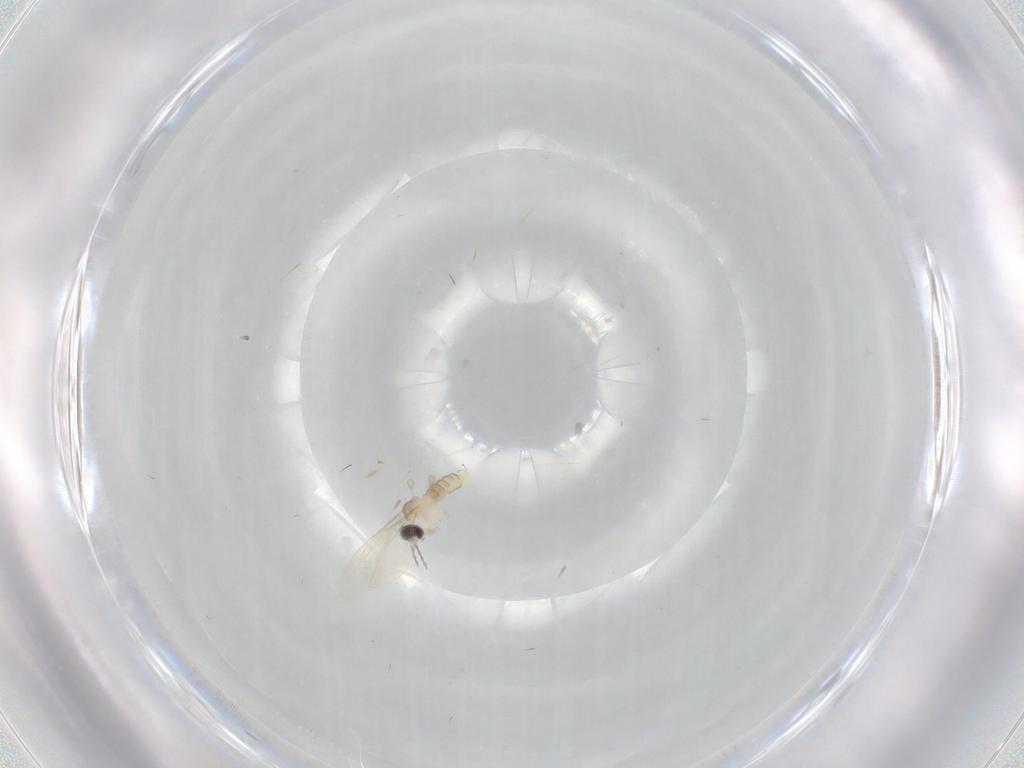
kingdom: Animalia
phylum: Arthropoda
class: Insecta
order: Diptera
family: Cecidomyiidae
